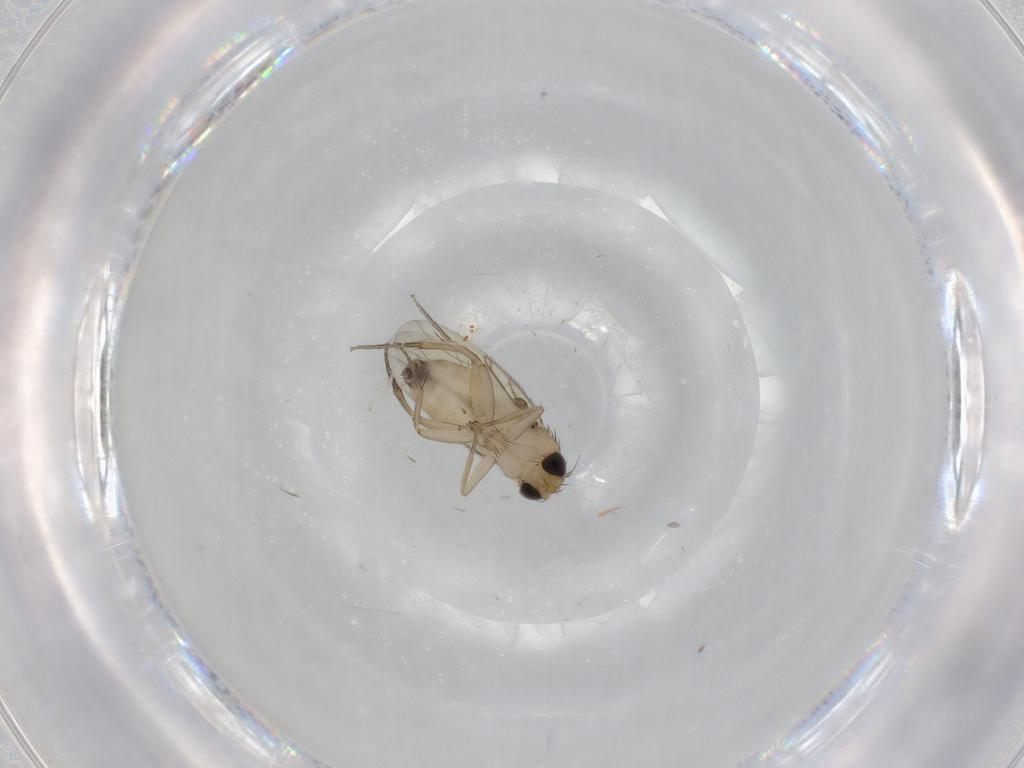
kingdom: Animalia
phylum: Arthropoda
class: Insecta
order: Diptera
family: Phoridae
